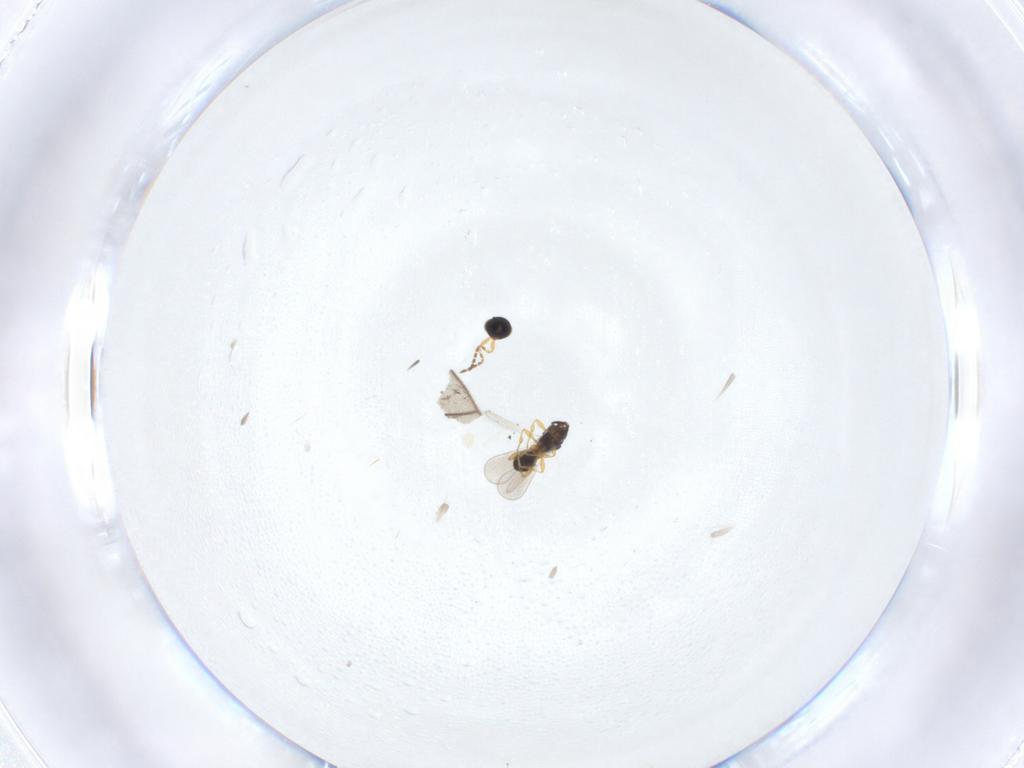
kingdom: Animalia
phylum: Arthropoda
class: Insecta
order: Hymenoptera
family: Platygastridae
